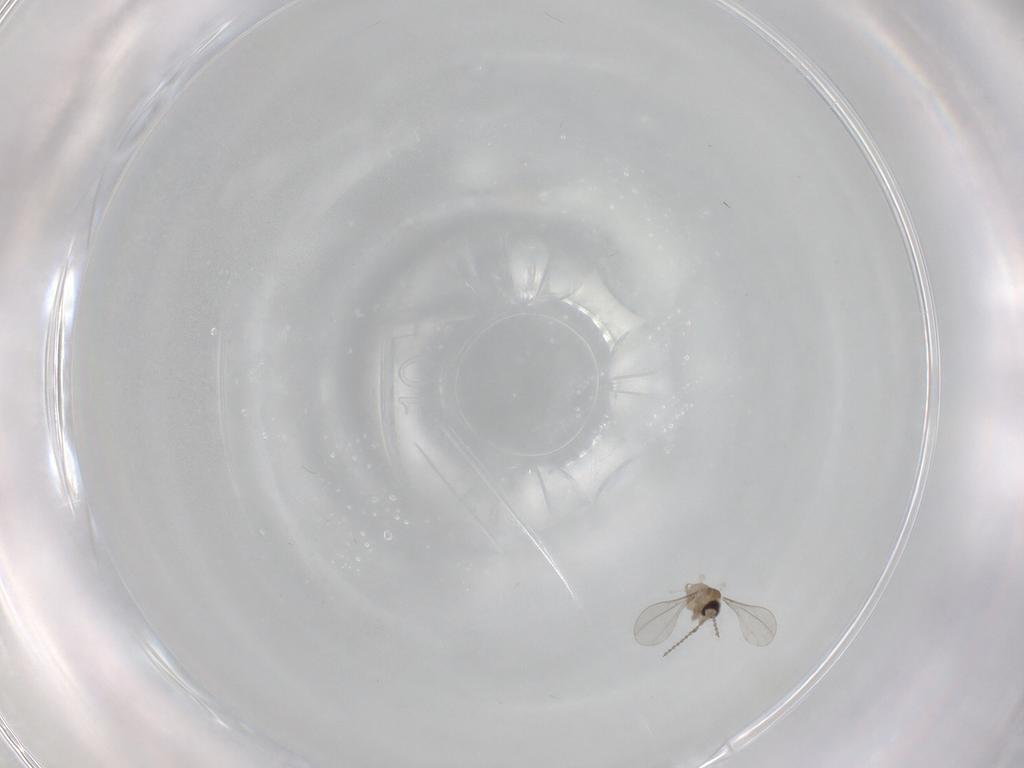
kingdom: Animalia
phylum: Arthropoda
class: Insecta
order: Diptera
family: Cecidomyiidae
